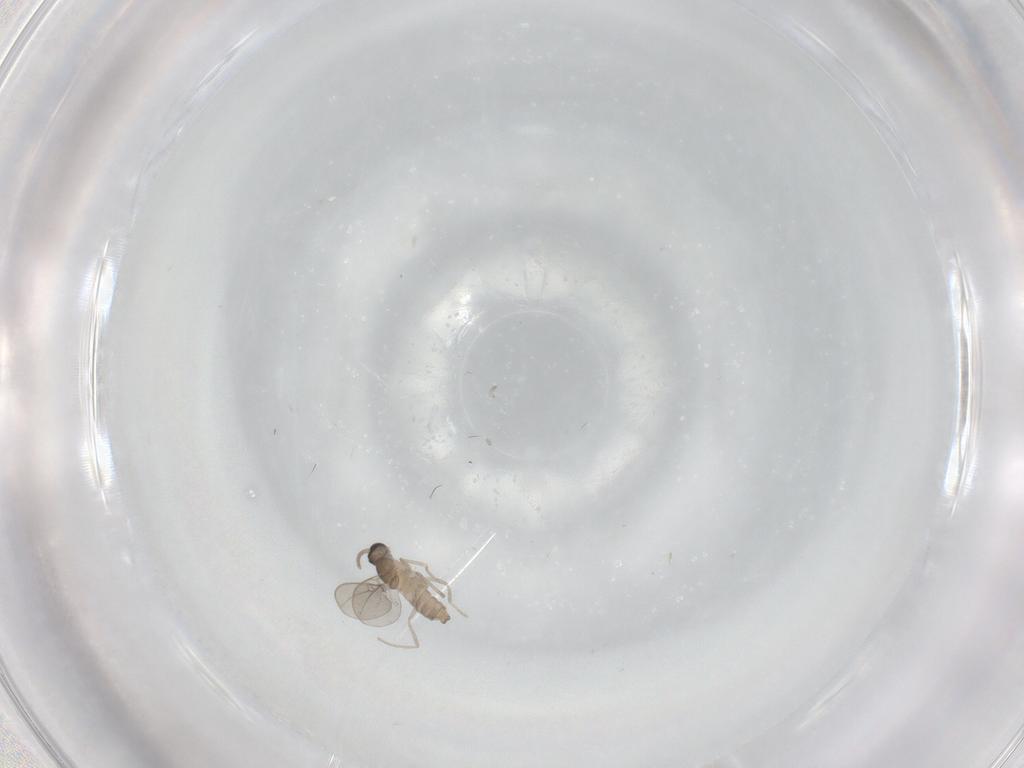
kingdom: Animalia
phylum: Arthropoda
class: Insecta
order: Diptera
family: Cecidomyiidae
